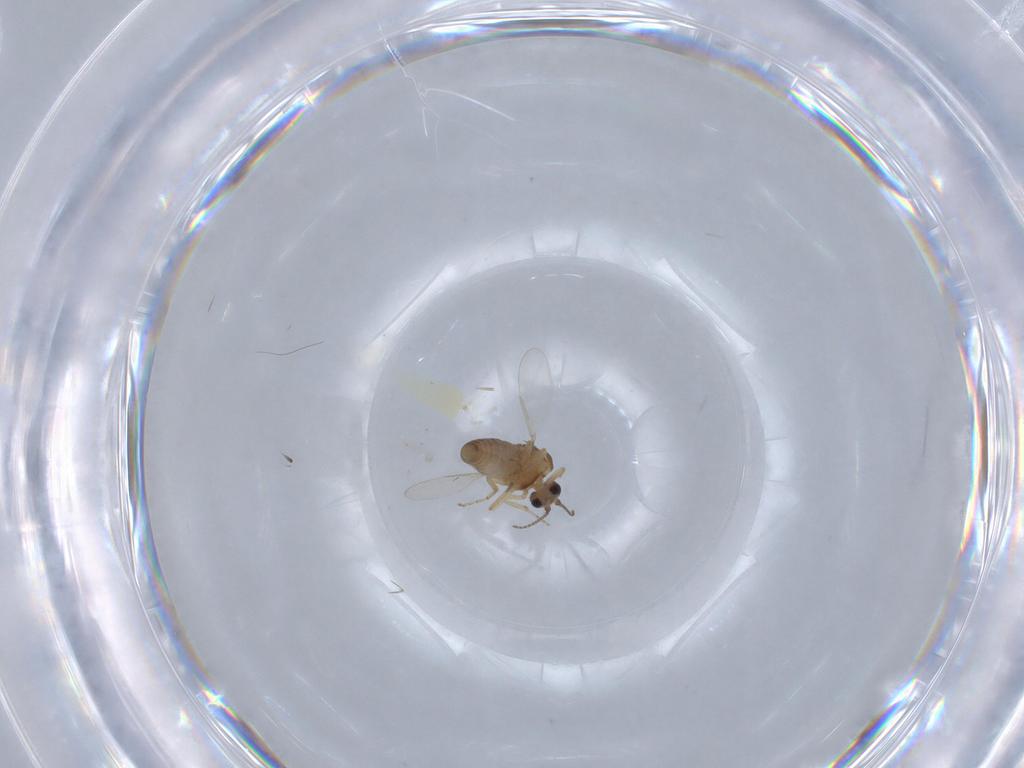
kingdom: Animalia
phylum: Arthropoda
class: Insecta
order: Diptera
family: Ceratopogonidae
